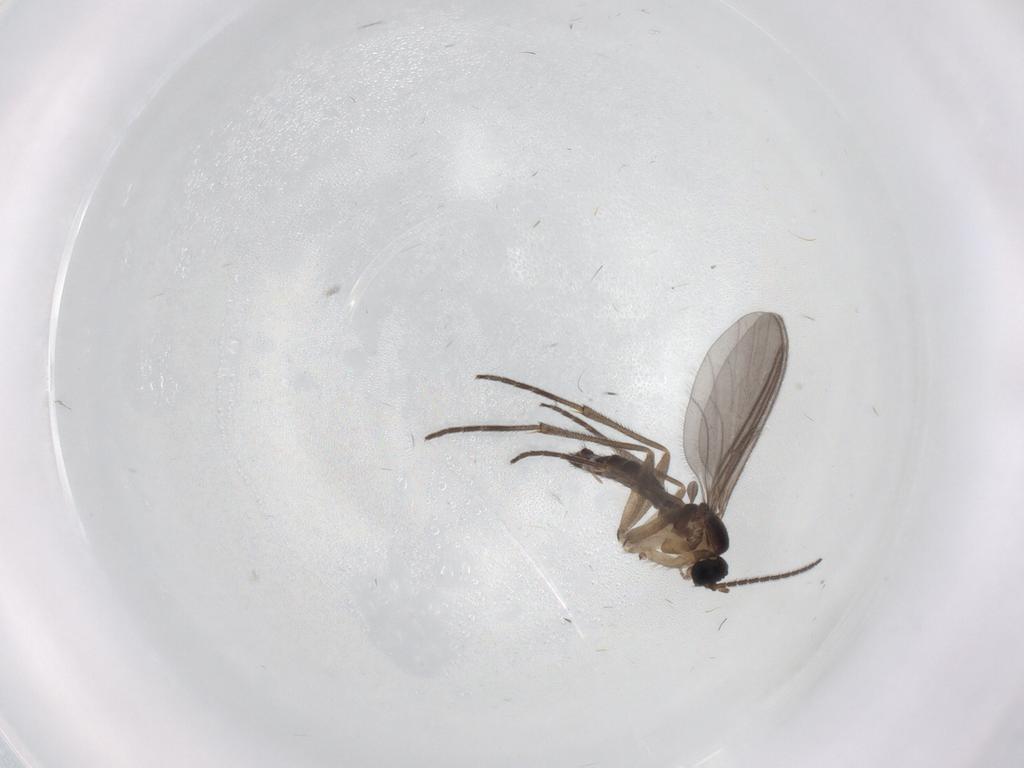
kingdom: Animalia
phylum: Arthropoda
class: Insecta
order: Diptera
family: Sciaridae
